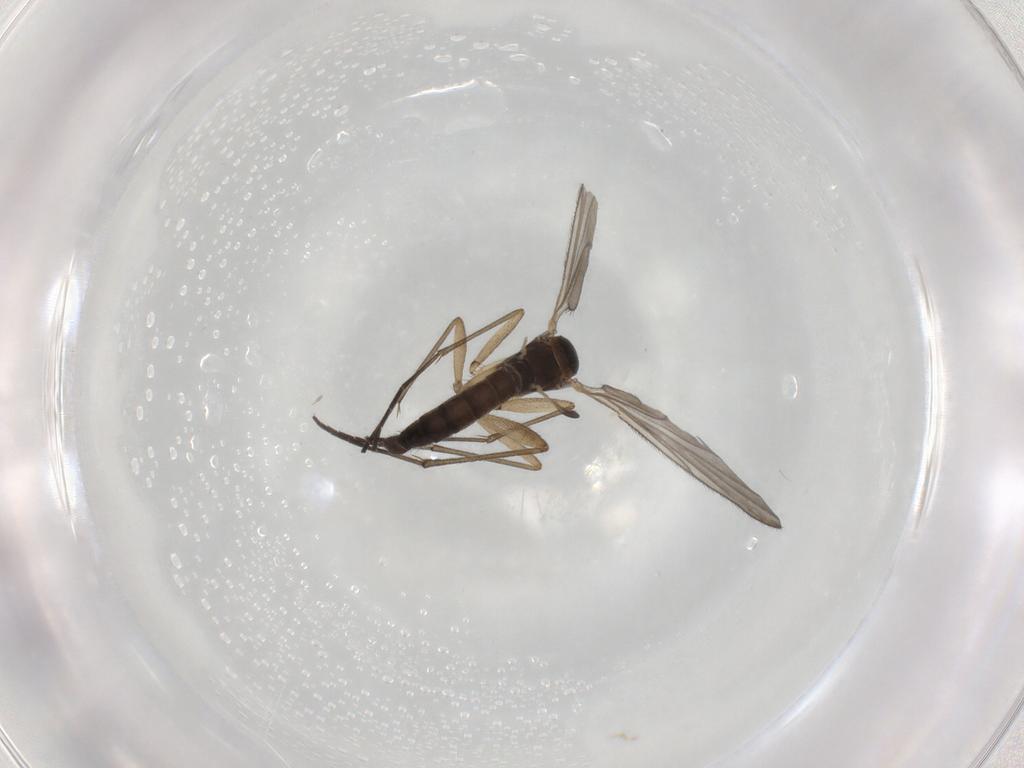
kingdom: Animalia
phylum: Arthropoda
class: Insecta
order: Diptera
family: Sciaridae
